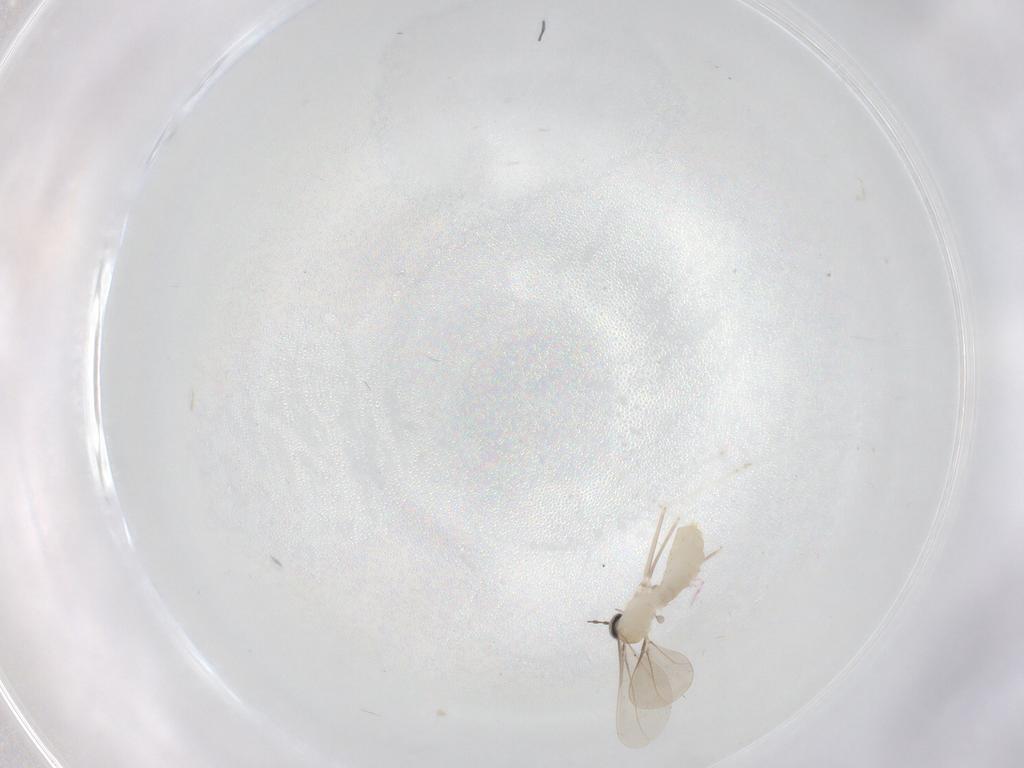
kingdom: Animalia
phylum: Arthropoda
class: Insecta
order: Diptera
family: Cecidomyiidae
